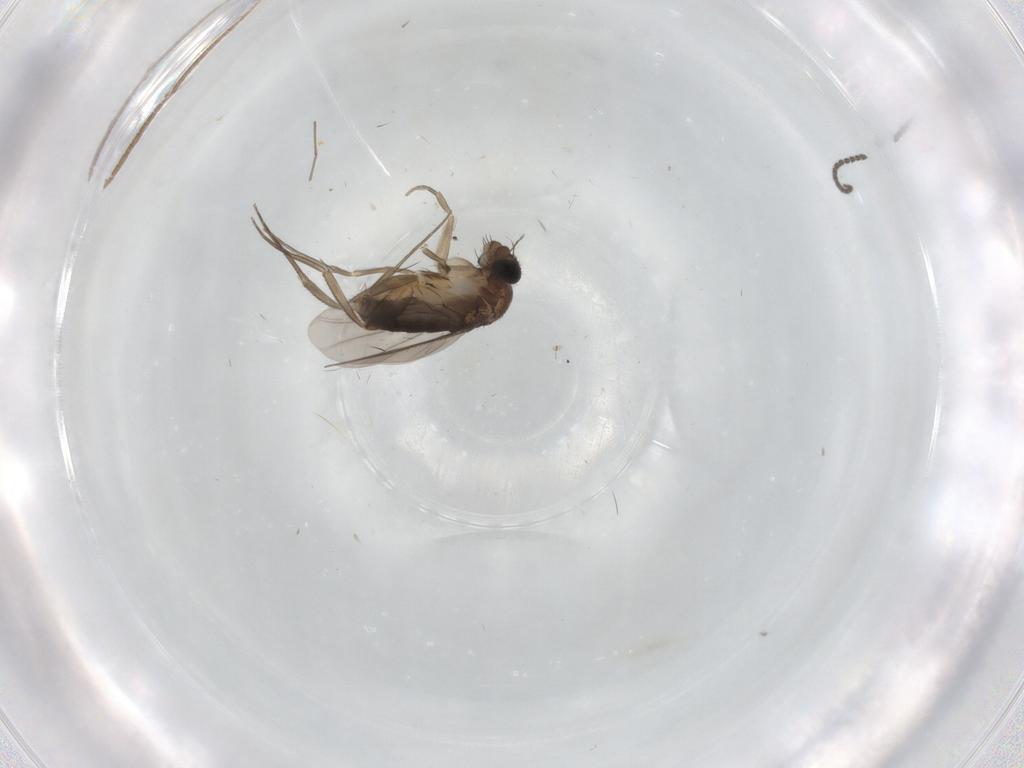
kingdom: Animalia
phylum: Arthropoda
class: Insecta
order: Diptera
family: Phoridae
